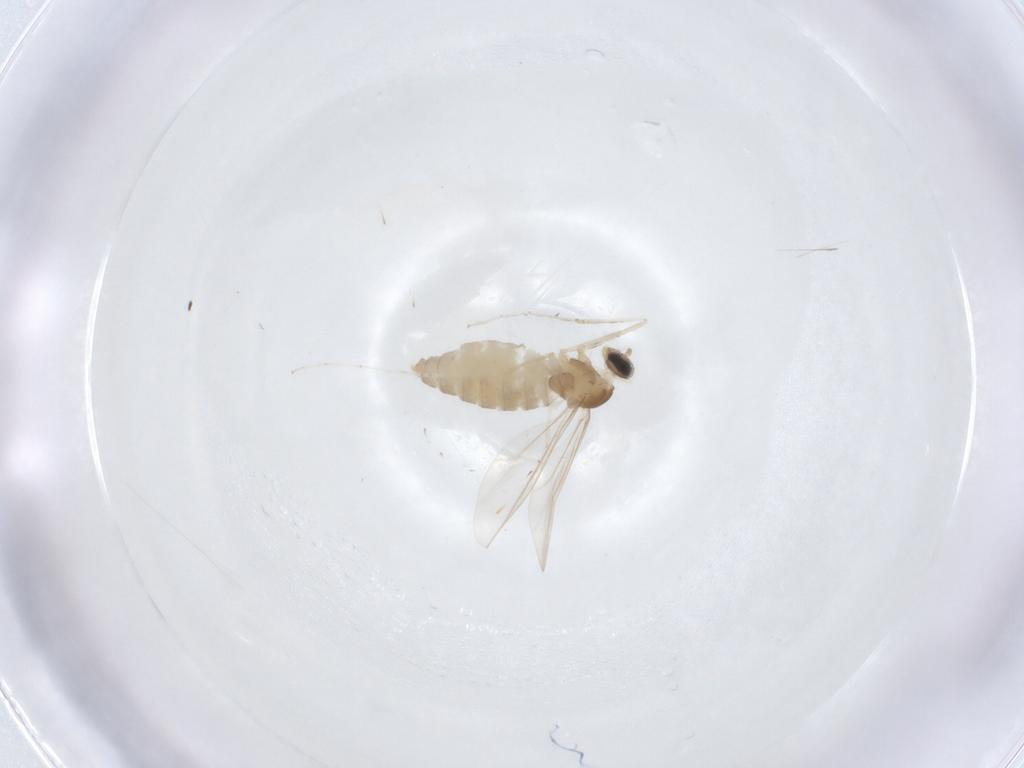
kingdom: Animalia
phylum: Arthropoda
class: Insecta
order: Diptera
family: Cecidomyiidae
